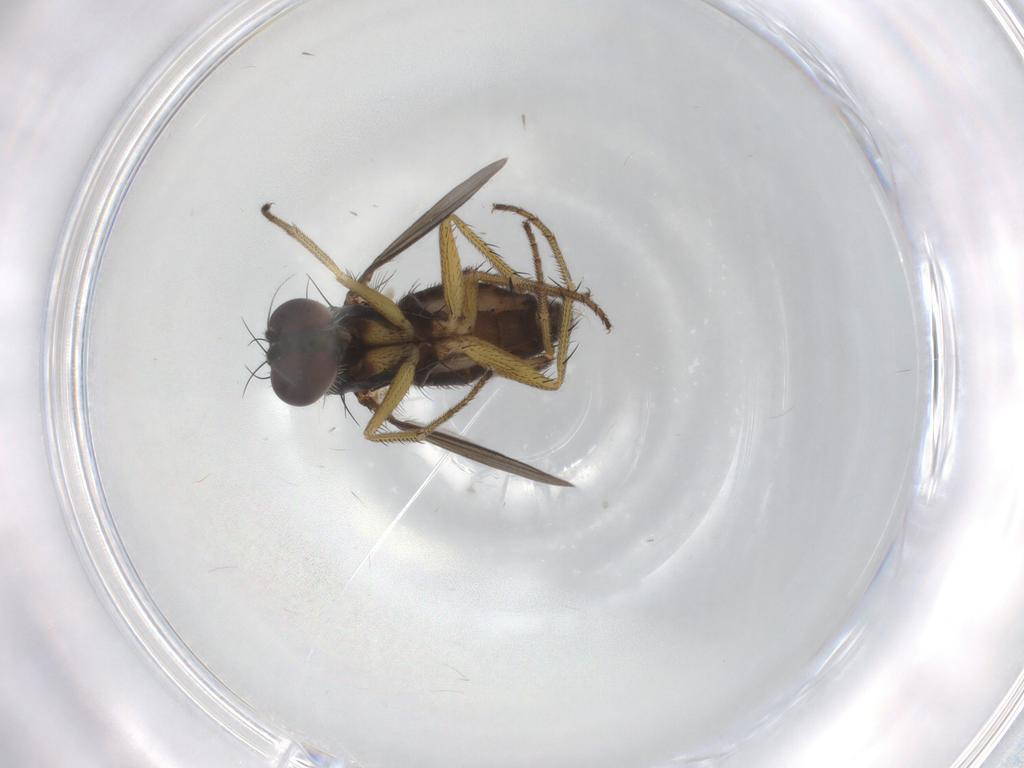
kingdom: Animalia
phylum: Arthropoda
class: Insecta
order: Diptera
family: Dolichopodidae
